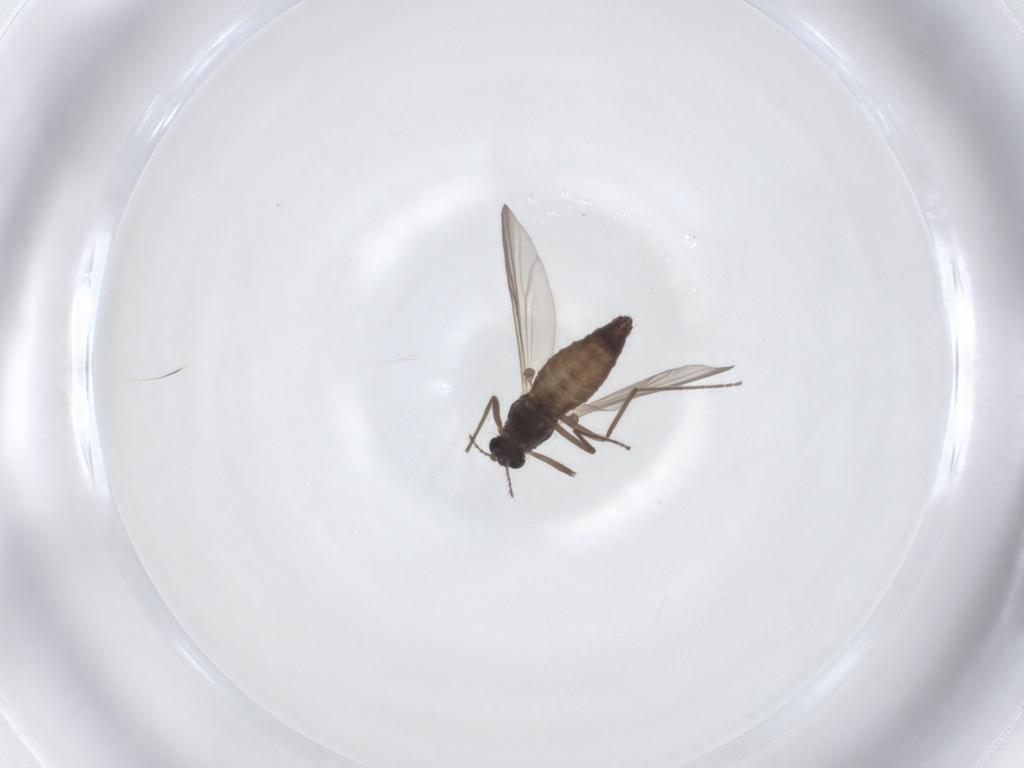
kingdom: Animalia
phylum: Arthropoda
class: Insecta
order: Diptera
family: Chironomidae
